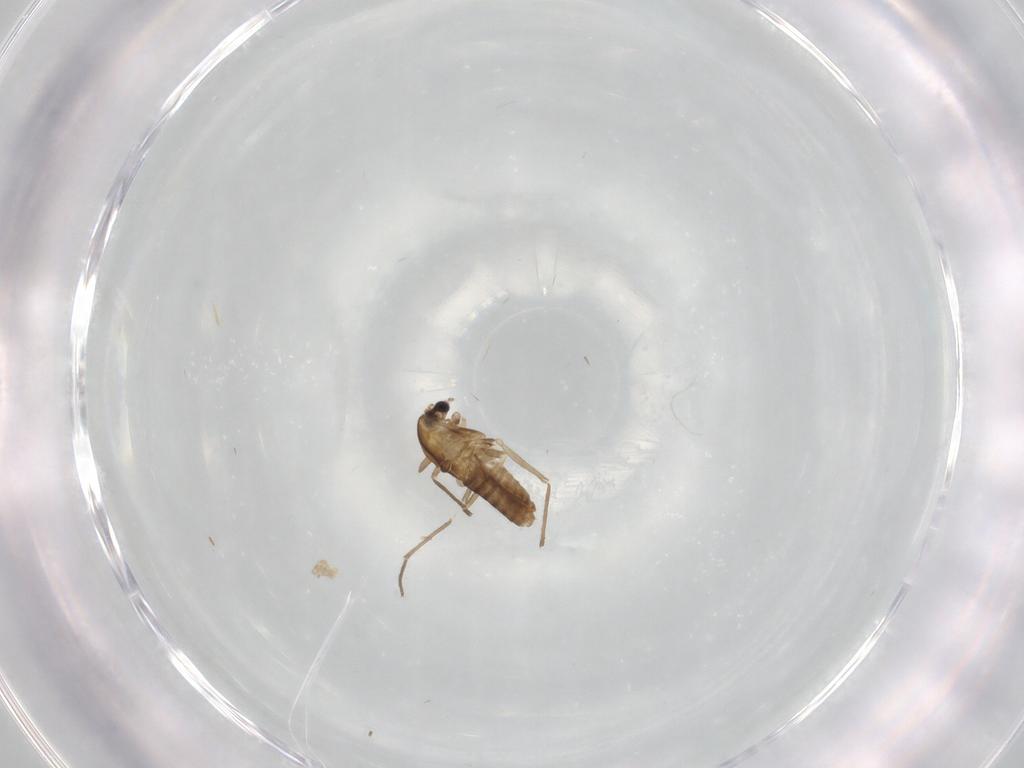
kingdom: Animalia
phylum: Arthropoda
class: Insecta
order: Diptera
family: Chironomidae
